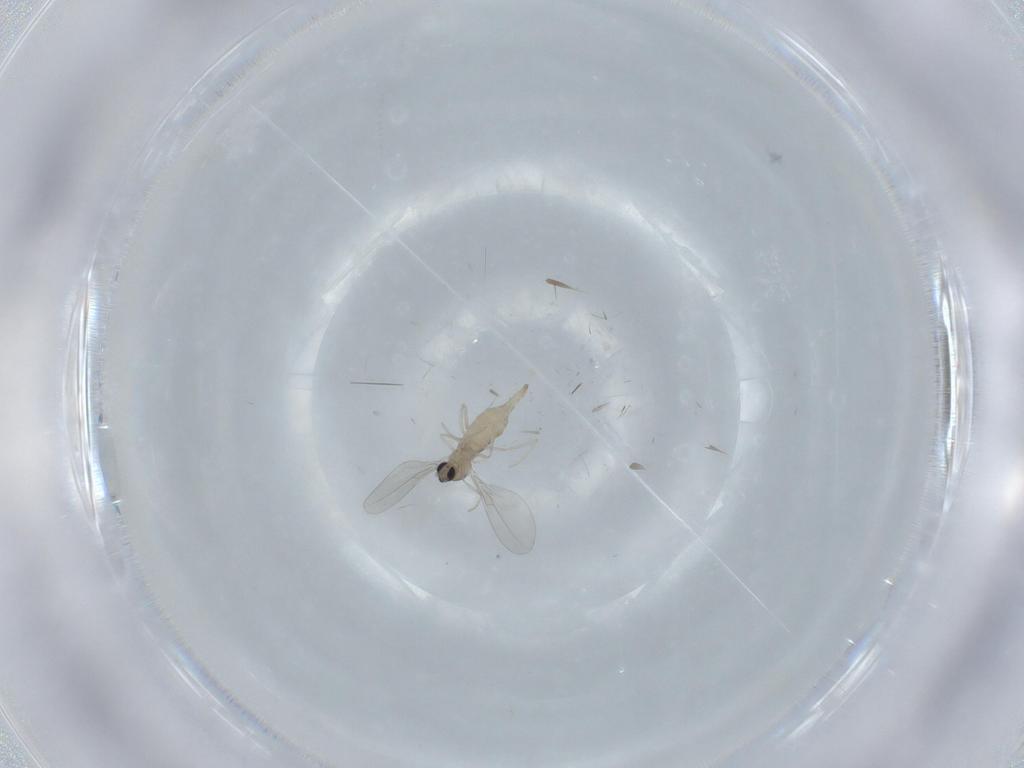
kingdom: Animalia
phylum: Arthropoda
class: Insecta
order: Diptera
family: Cecidomyiidae
